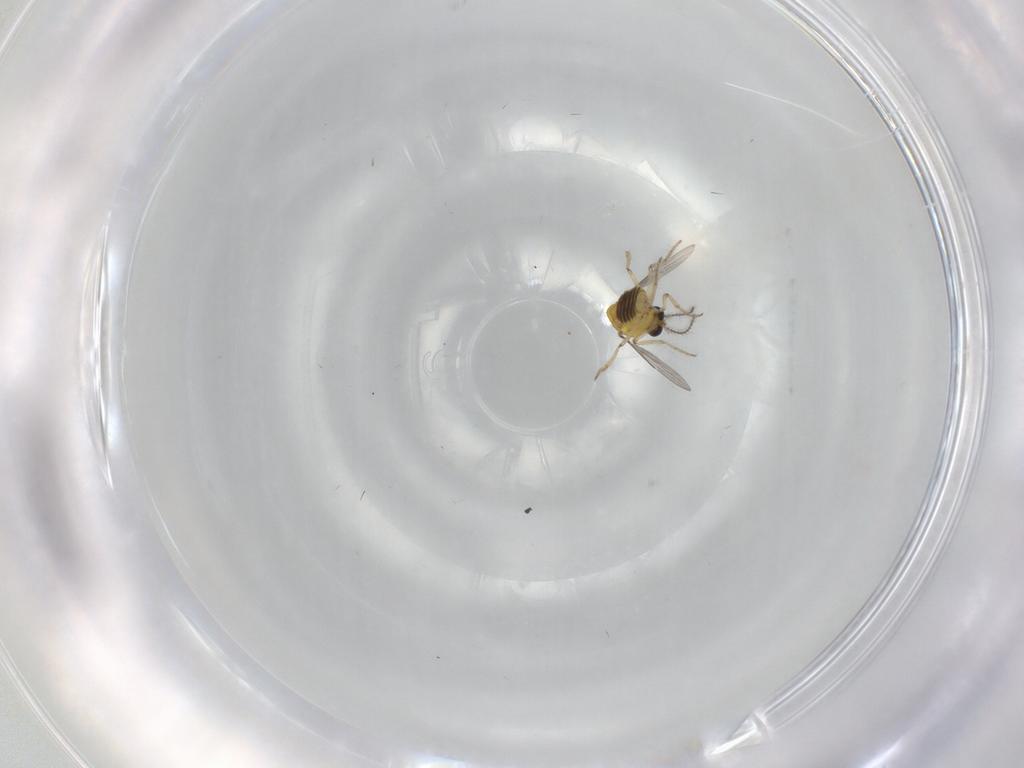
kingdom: Animalia
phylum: Arthropoda
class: Insecta
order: Diptera
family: Ceratopogonidae
